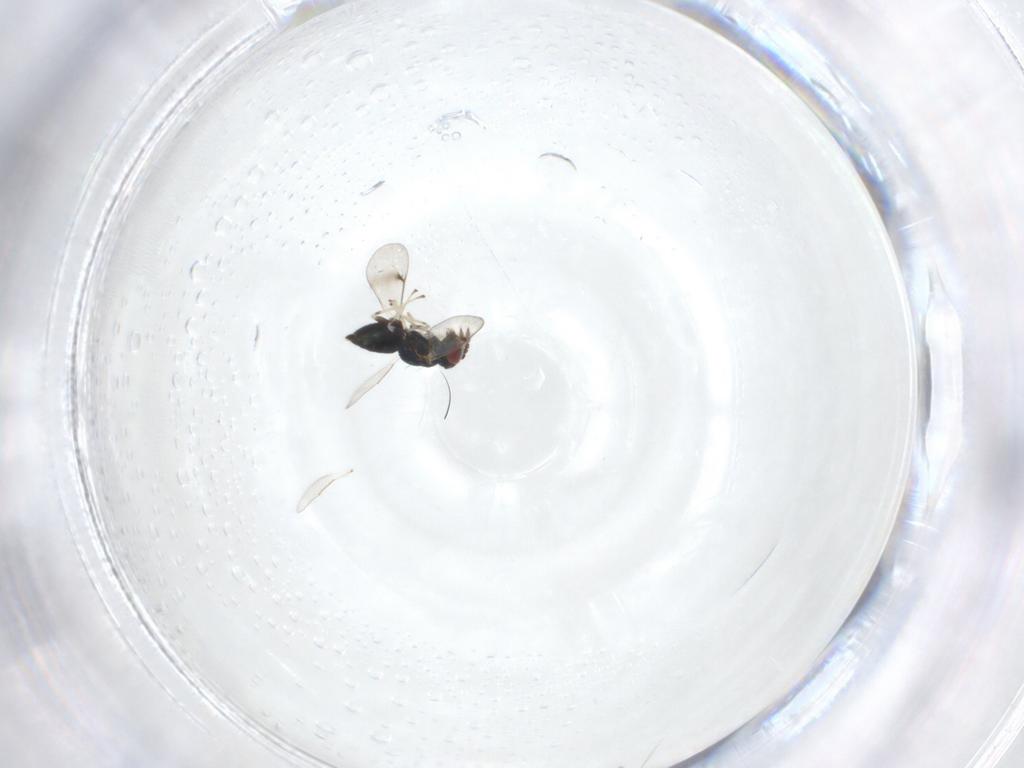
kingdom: Animalia
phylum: Arthropoda
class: Insecta
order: Hymenoptera
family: Eulophidae
